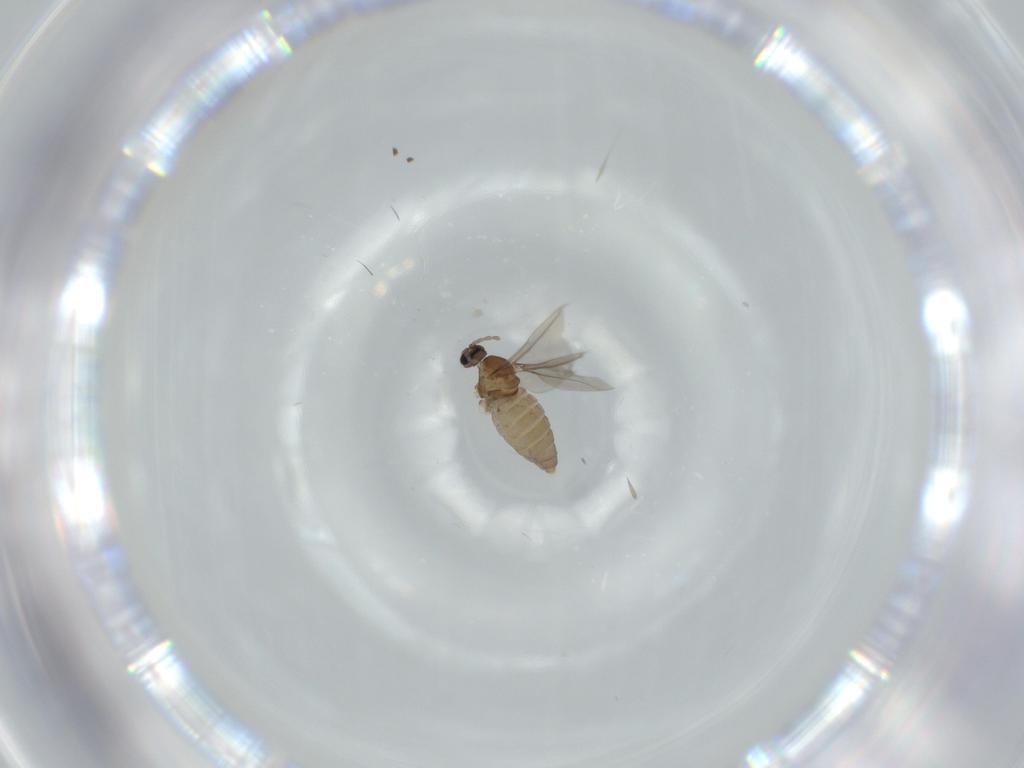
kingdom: Animalia
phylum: Arthropoda
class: Insecta
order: Diptera
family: Cecidomyiidae
